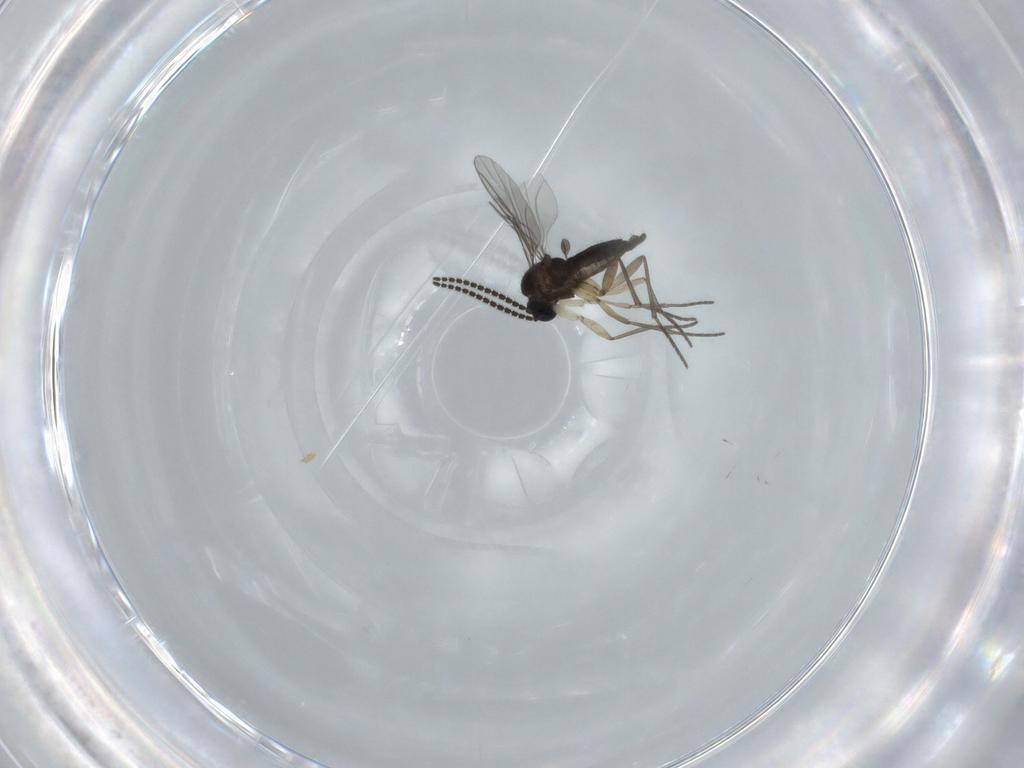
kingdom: Animalia
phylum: Arthropoda
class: Insecta
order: Diptera
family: Sciaridae
